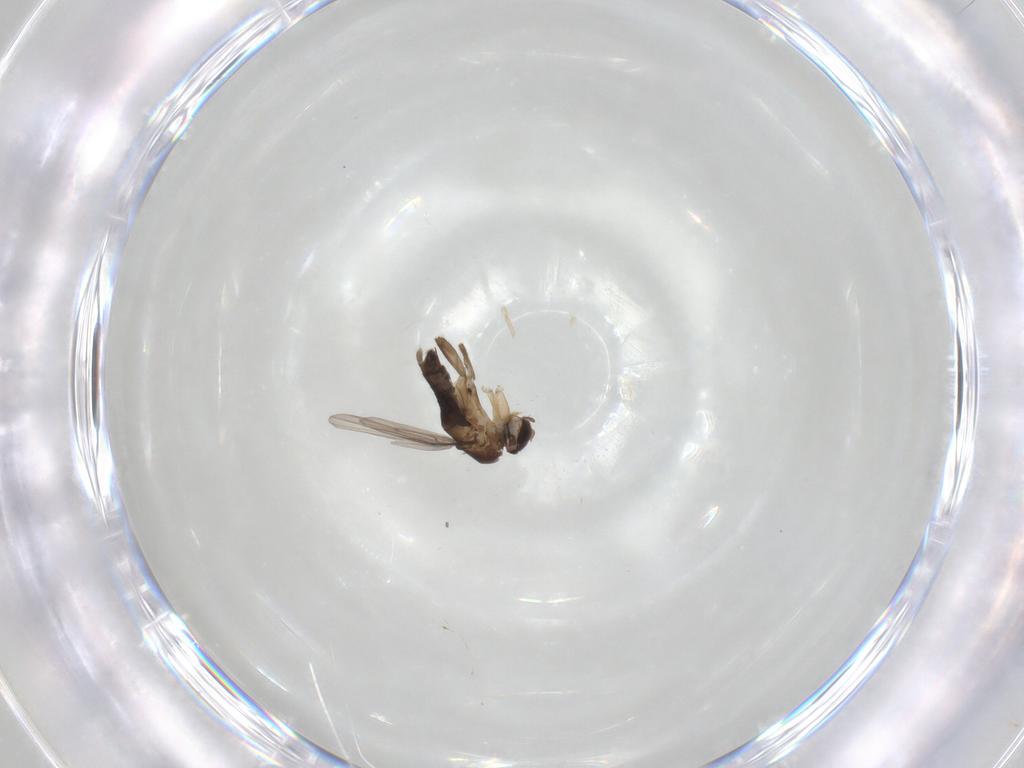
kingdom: Animalia
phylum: Arthropoda
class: Insecta
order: Diptera
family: Phoridae
